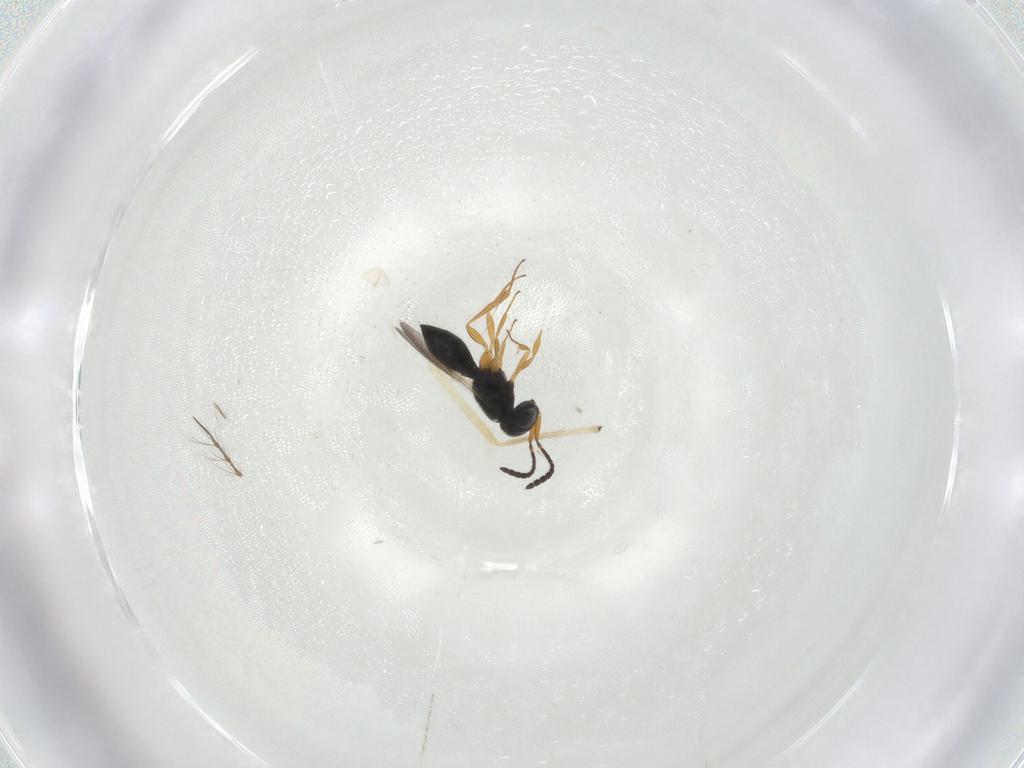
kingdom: Animalia
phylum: Arthropoda
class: Insecta
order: Hymenoptera
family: Scelionidae
